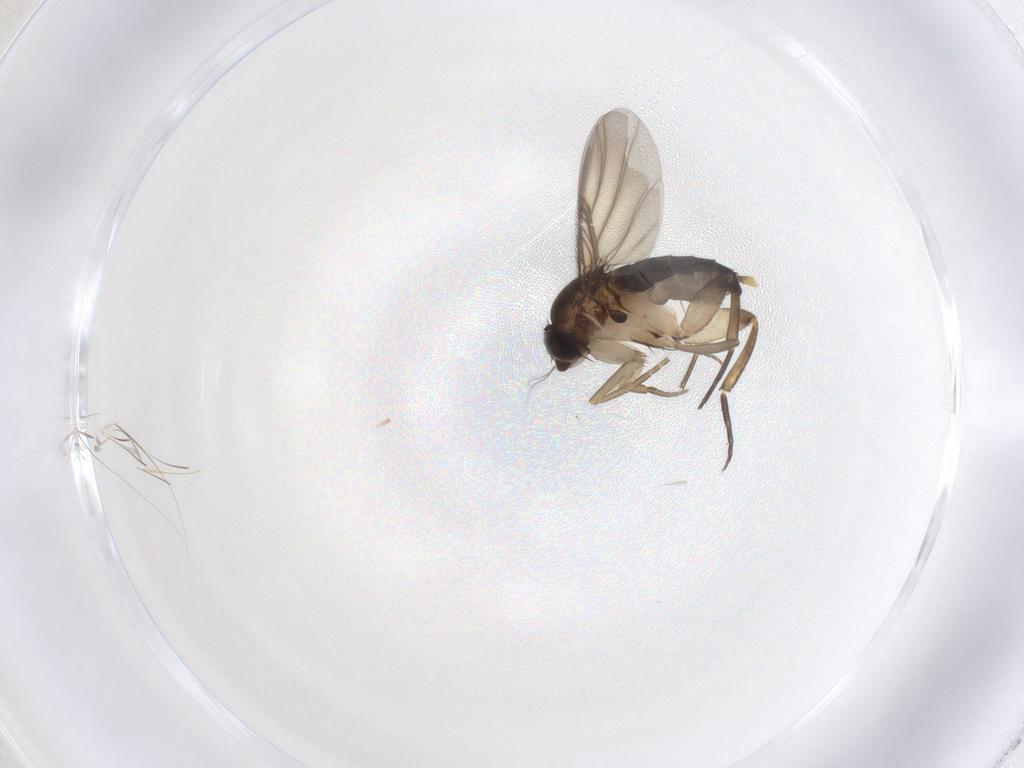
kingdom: Animalia
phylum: Arthropoda
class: Insecta
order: Diptera
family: Phoridae
